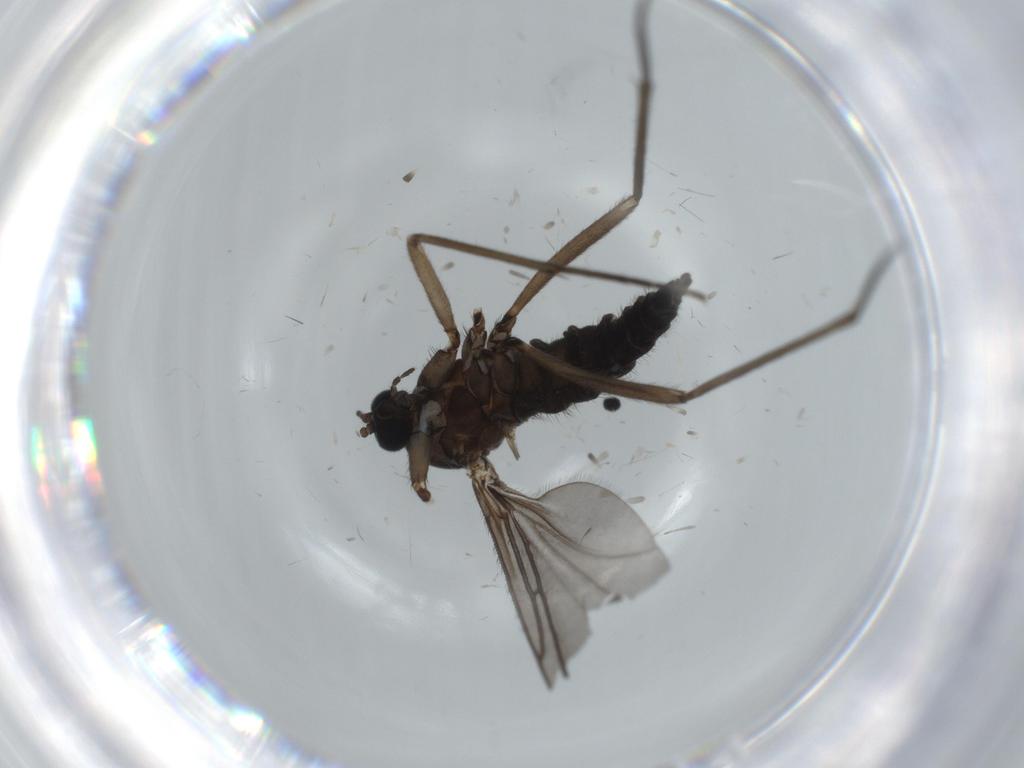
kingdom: Animalia
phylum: Arthropoda
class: Insecta
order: Diptera
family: Sciaridae
